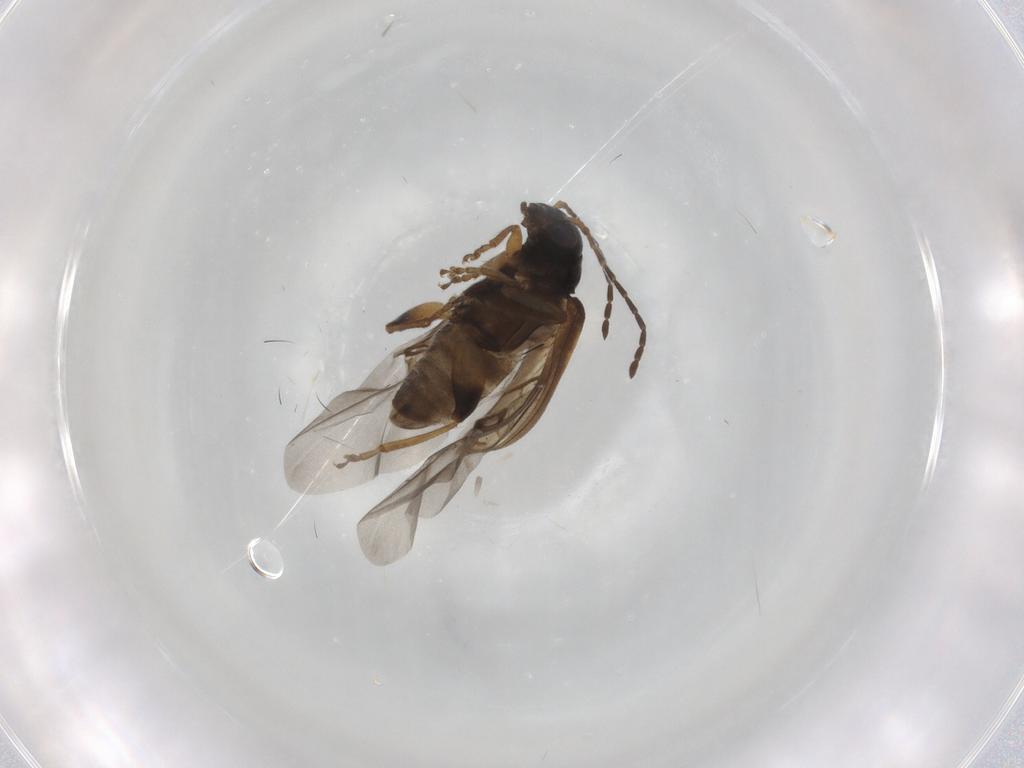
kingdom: Animalia
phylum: Arthropoda
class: Insecta
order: Coleoptera
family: Chrysomelidae
